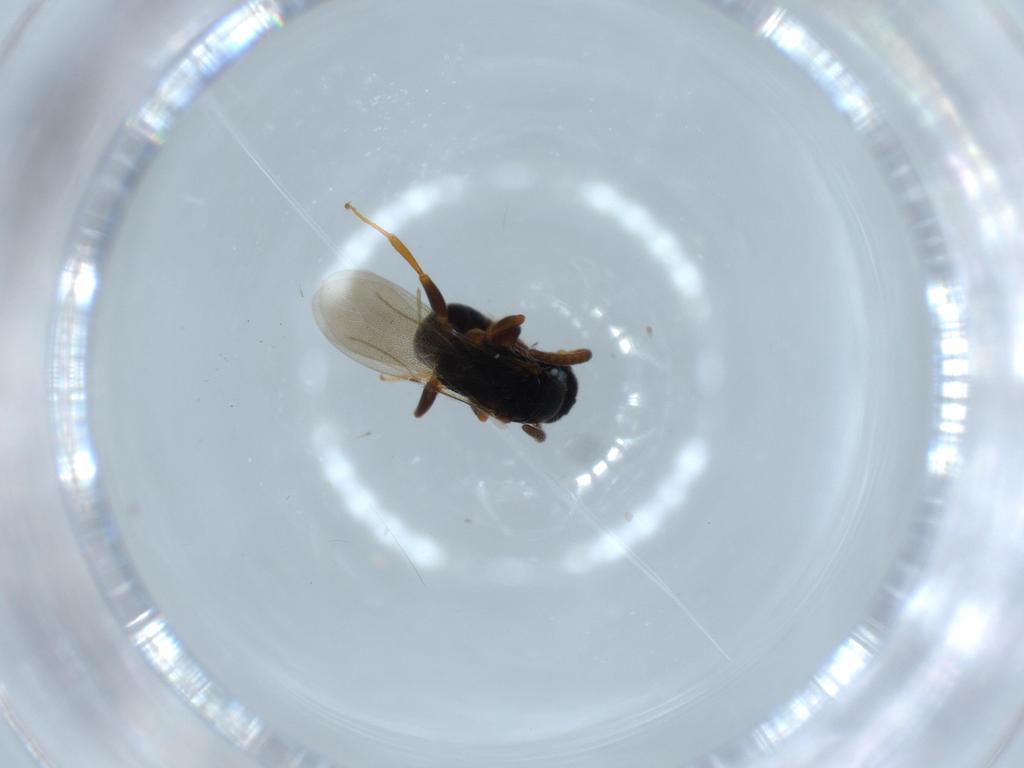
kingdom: Animalia
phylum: Arthropoda
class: Insecta
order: Hymenoptera
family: Bethylidae
